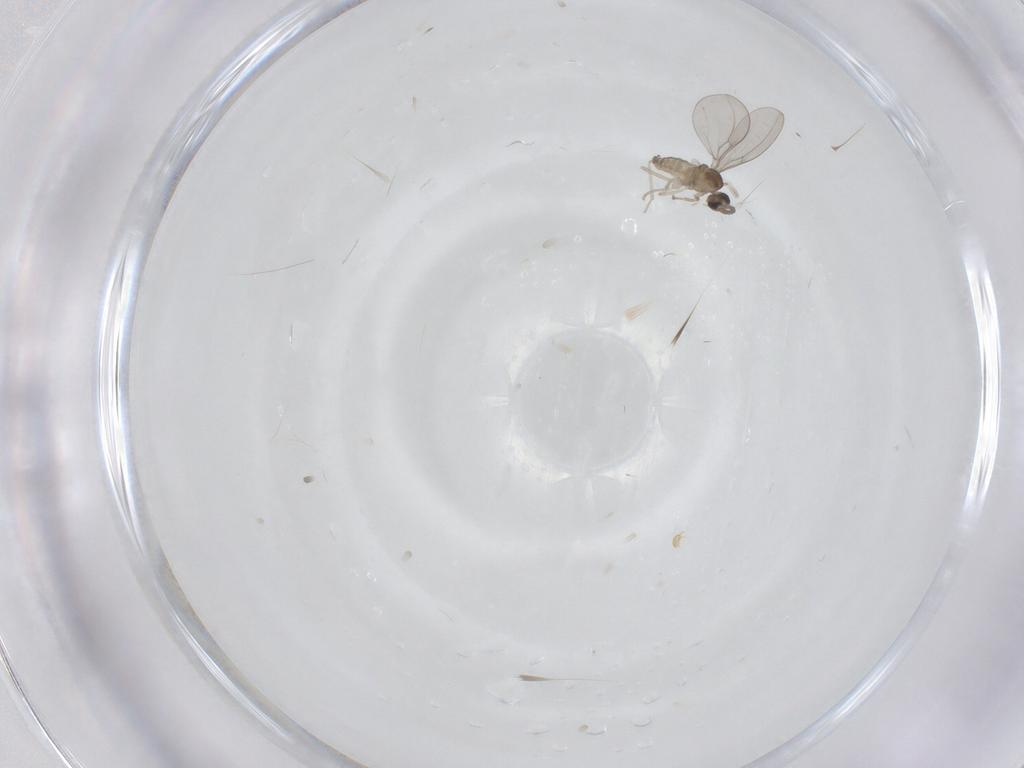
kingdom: Animalia
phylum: Arthropoda
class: Insecta
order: Diptera
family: Cecidomyiidae
